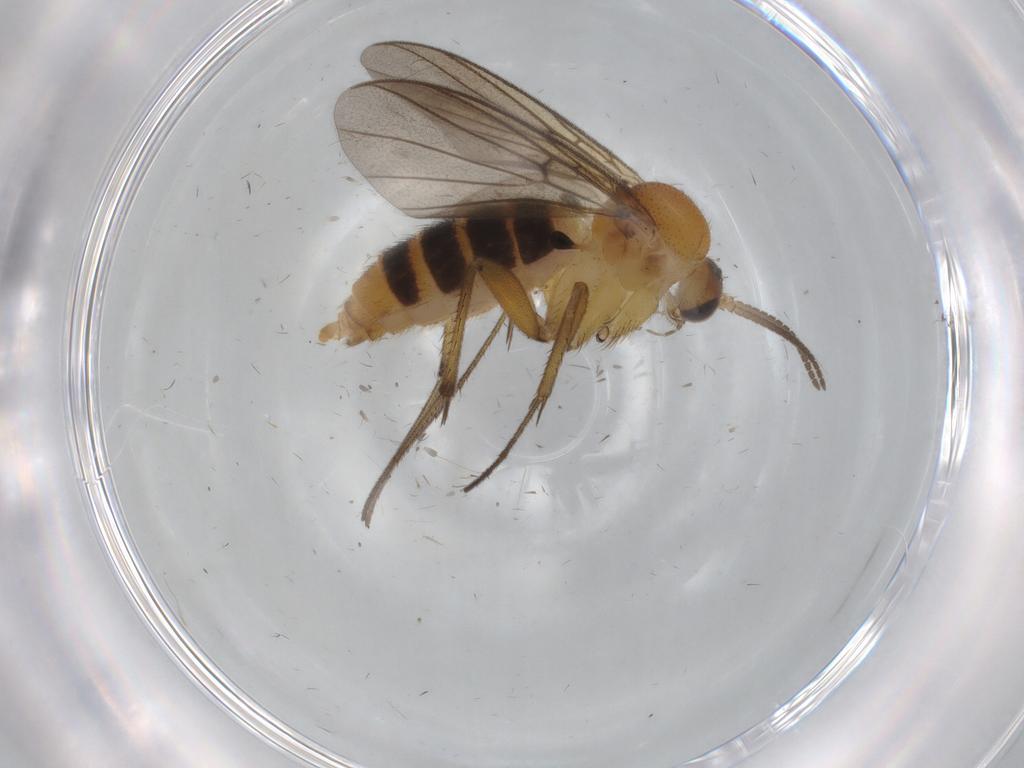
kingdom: Animalia
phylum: Arthropoda
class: Insecta
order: Diptera
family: Mycetophilidae
